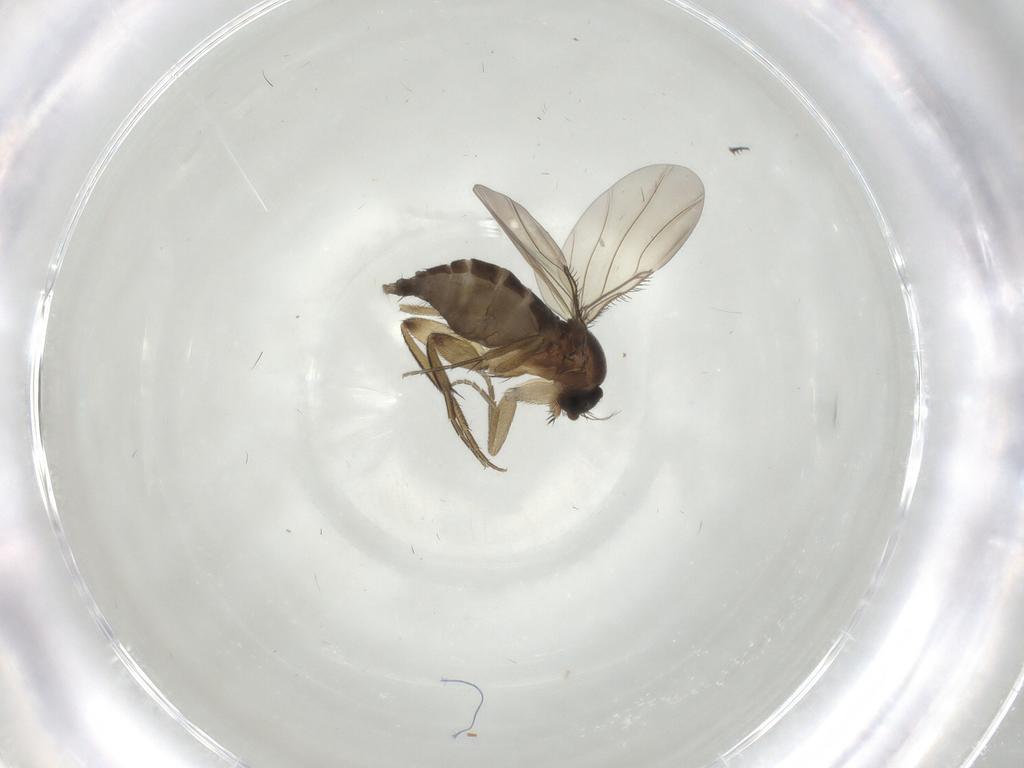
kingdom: Animalia
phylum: Arthropoda
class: Insecta
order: Diptera
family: Phoridae
